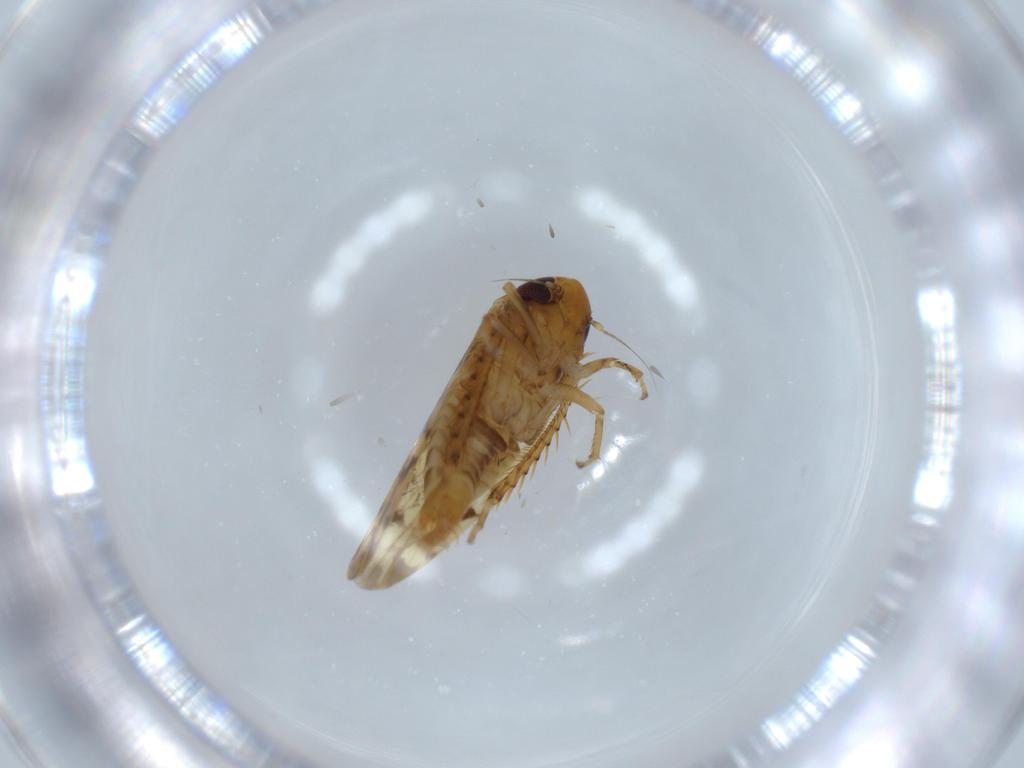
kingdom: Animalia
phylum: Arthropoda
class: Insecta
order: Hemiptera
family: Cicadellidae
